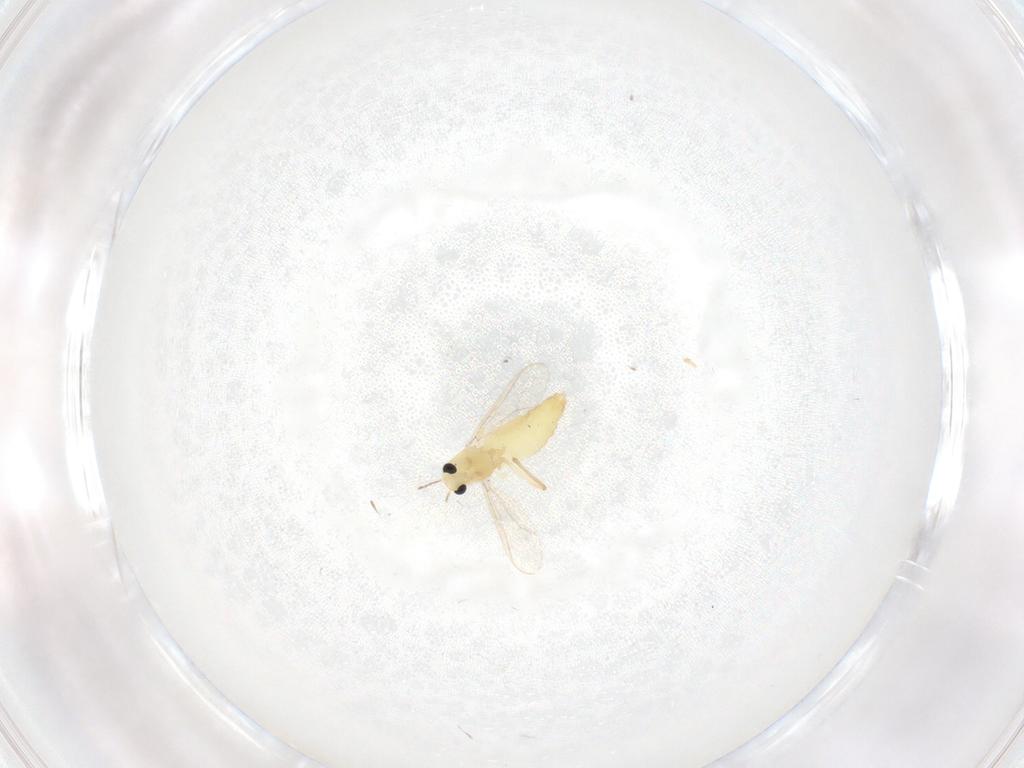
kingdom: Animalia
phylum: Arthropoda
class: Insecta
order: Diptera
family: Chironomidae
